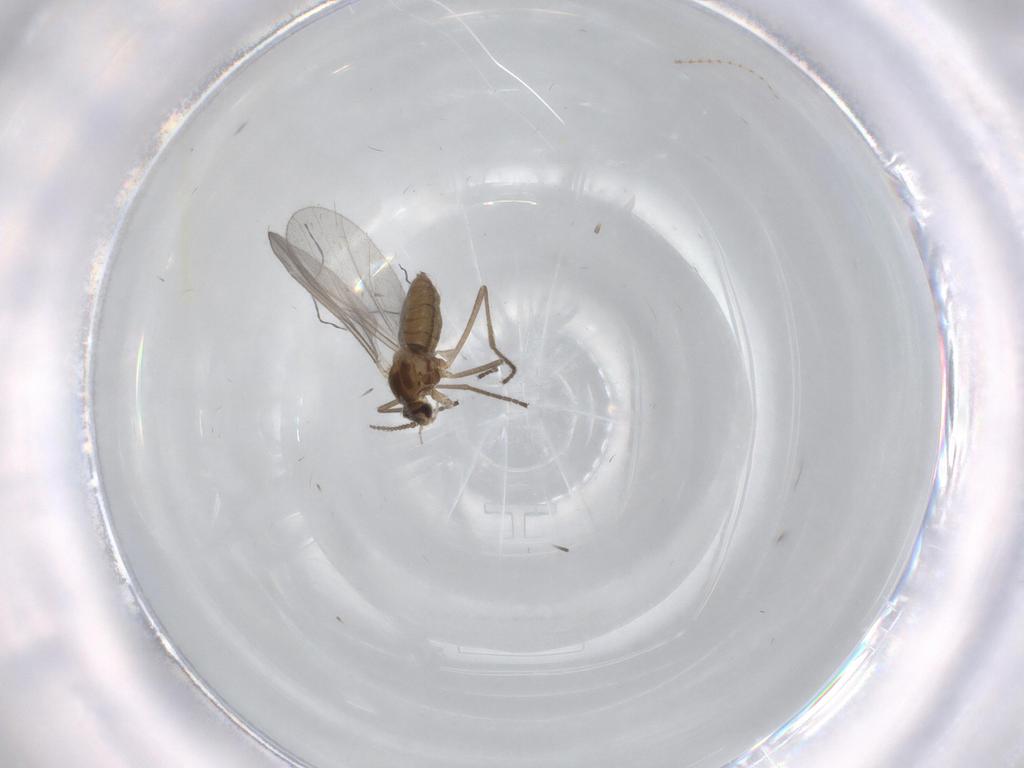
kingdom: Animalia
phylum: Arthropoda
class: Insecta
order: Diptera
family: Cecidomyiidae
